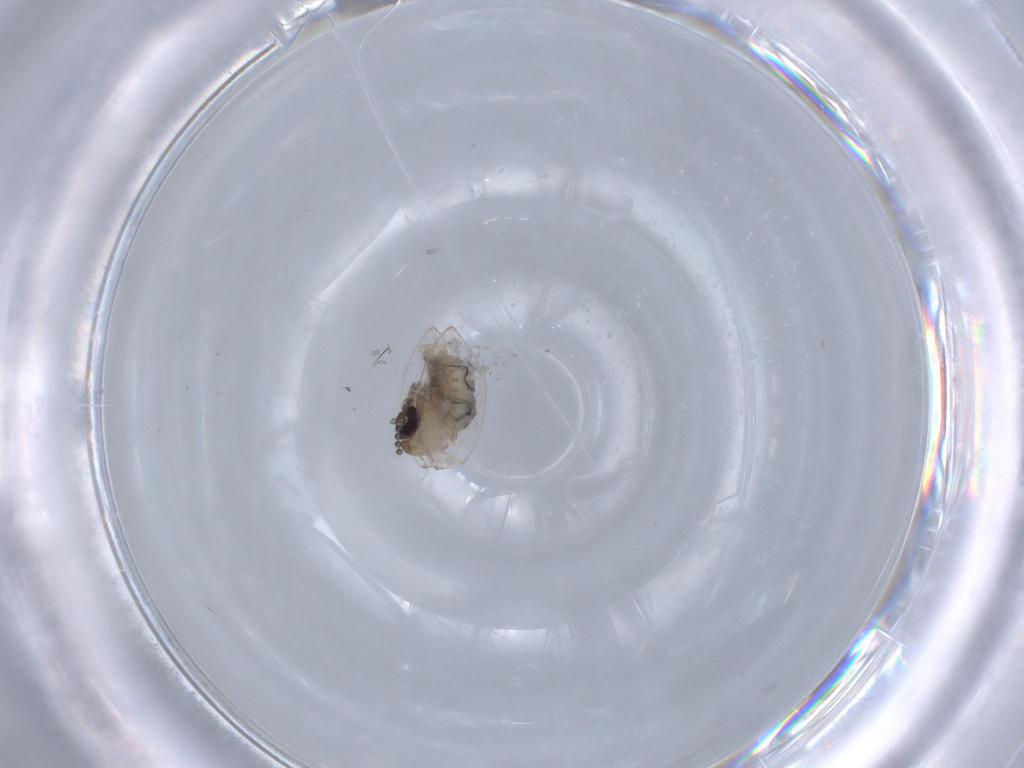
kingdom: Animalia
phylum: Arthropoda
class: Insecta
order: Diptera
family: Psychodidae
